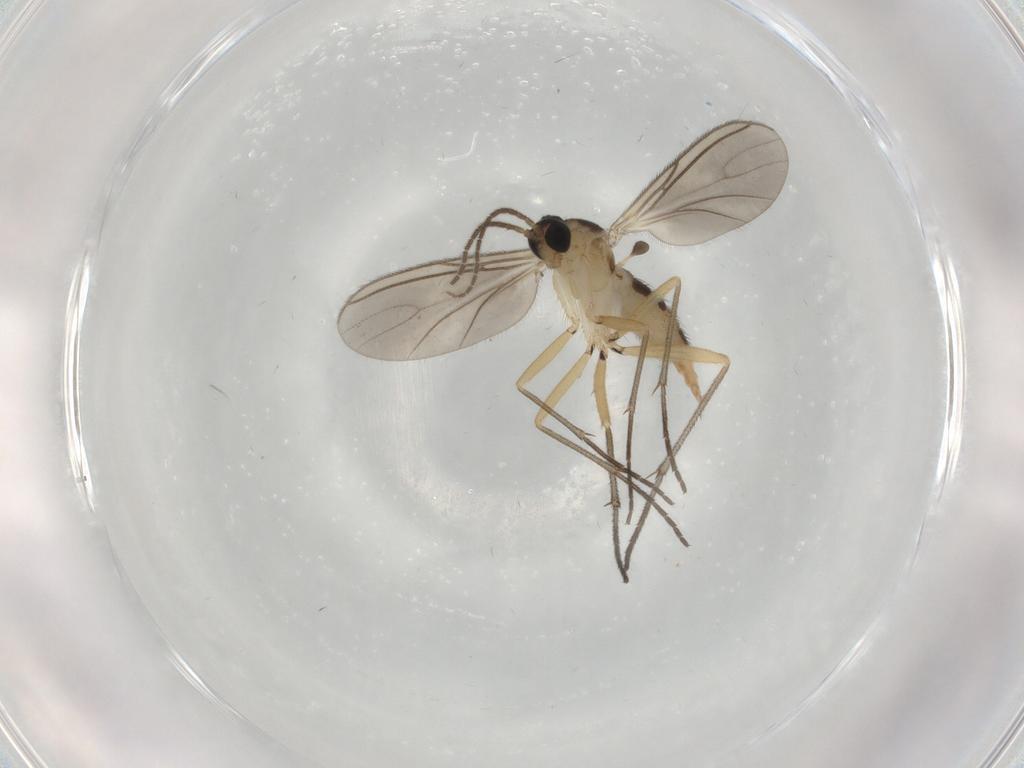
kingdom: Animalia
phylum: Arthropoda
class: Insecta
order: Diptera
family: Sciaridae
